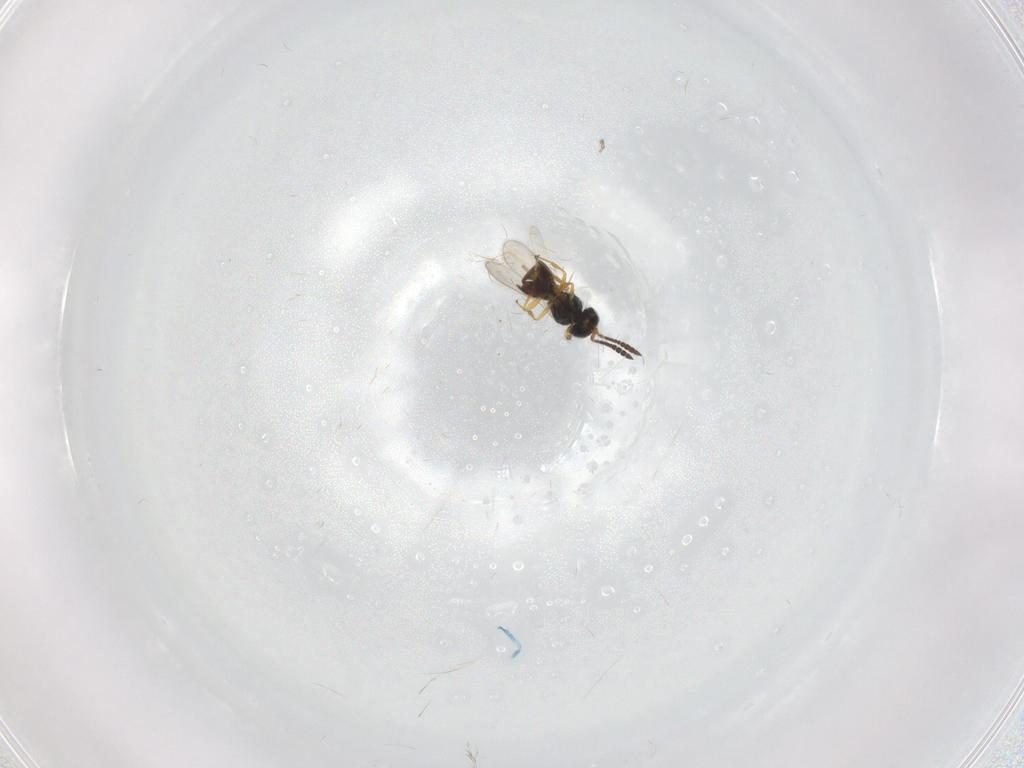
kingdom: Animalia
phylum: Arthropoda
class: Insecta
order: Hymenoptera
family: Scelionidae
